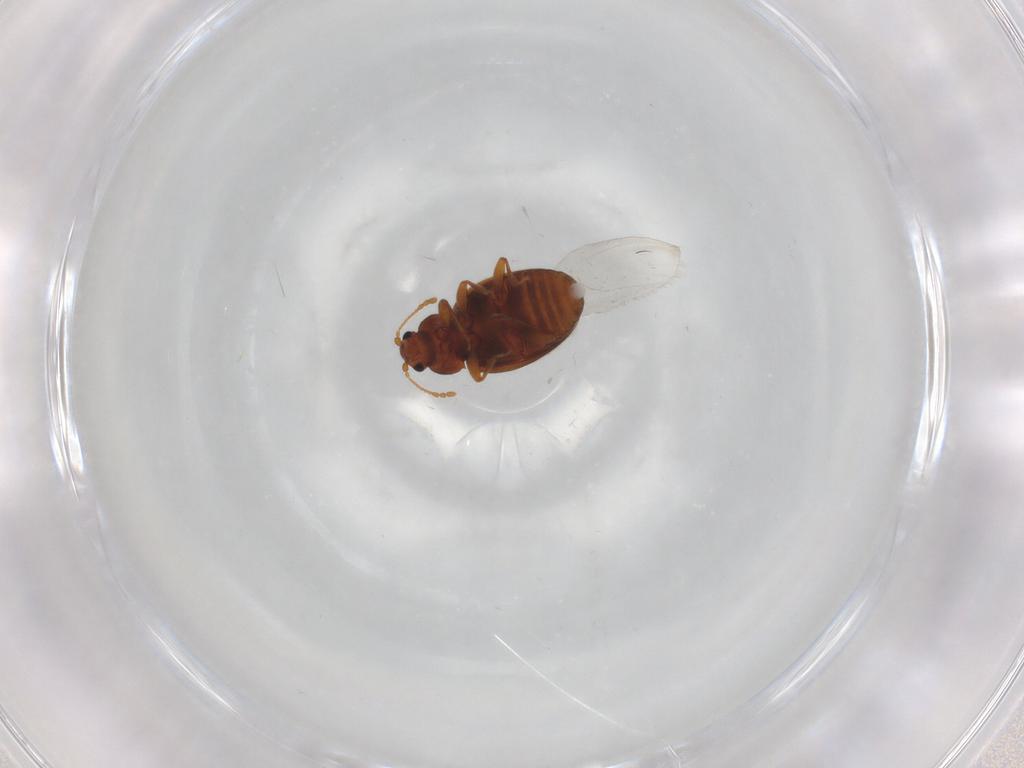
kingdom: Animalia
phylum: Arthropoda
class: Insecta
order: Coleoptera
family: Latridiidae
